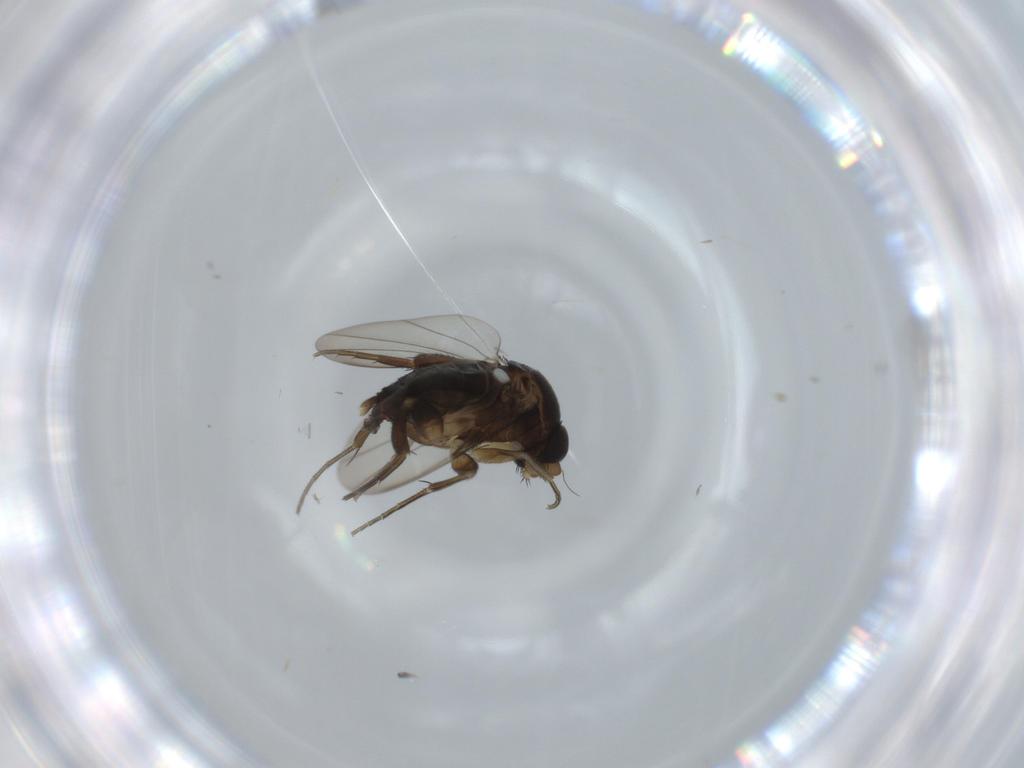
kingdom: Animalia
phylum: Arthropoda
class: Insecta
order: Diptera
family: Phoridae
